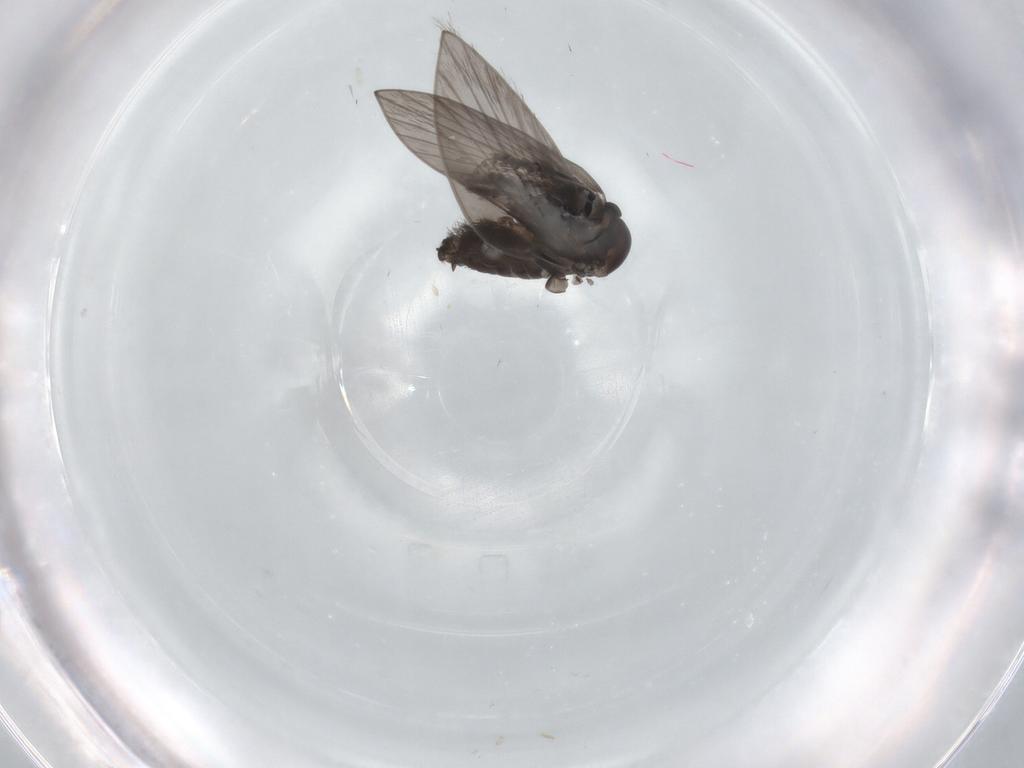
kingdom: Animalia
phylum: Arthropoda
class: Insecta
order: Diptera
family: Psychodidae
